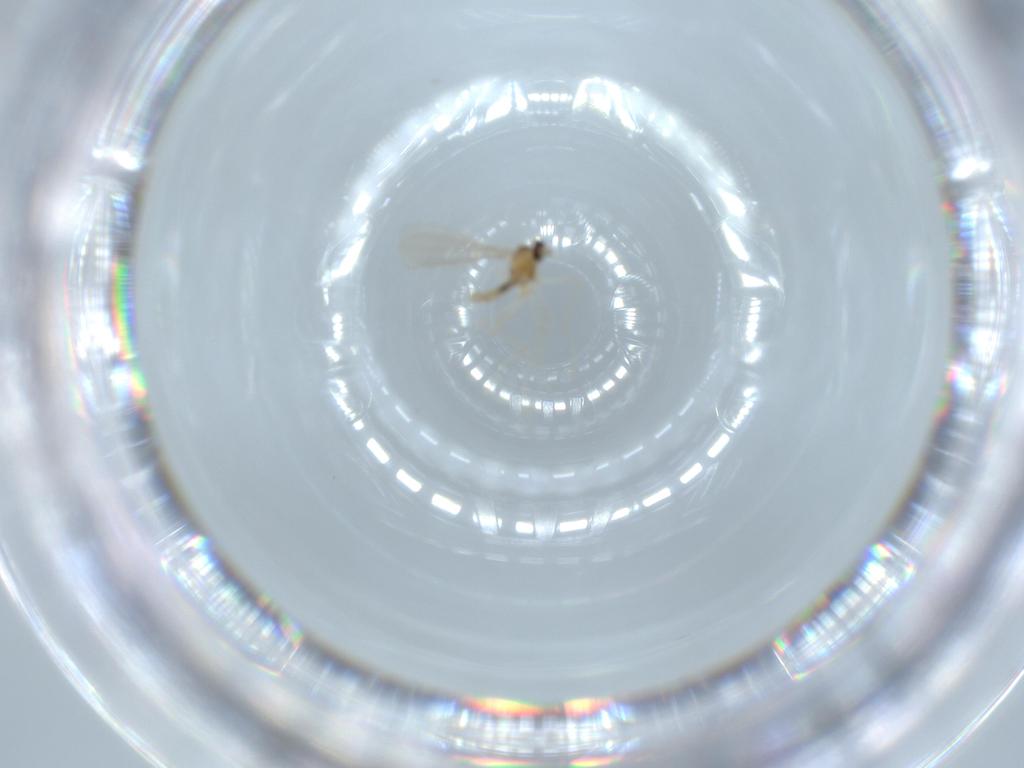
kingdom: Animalia
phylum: Arthropoda
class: Insecta
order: Diptera
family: Cecidomyiidae
